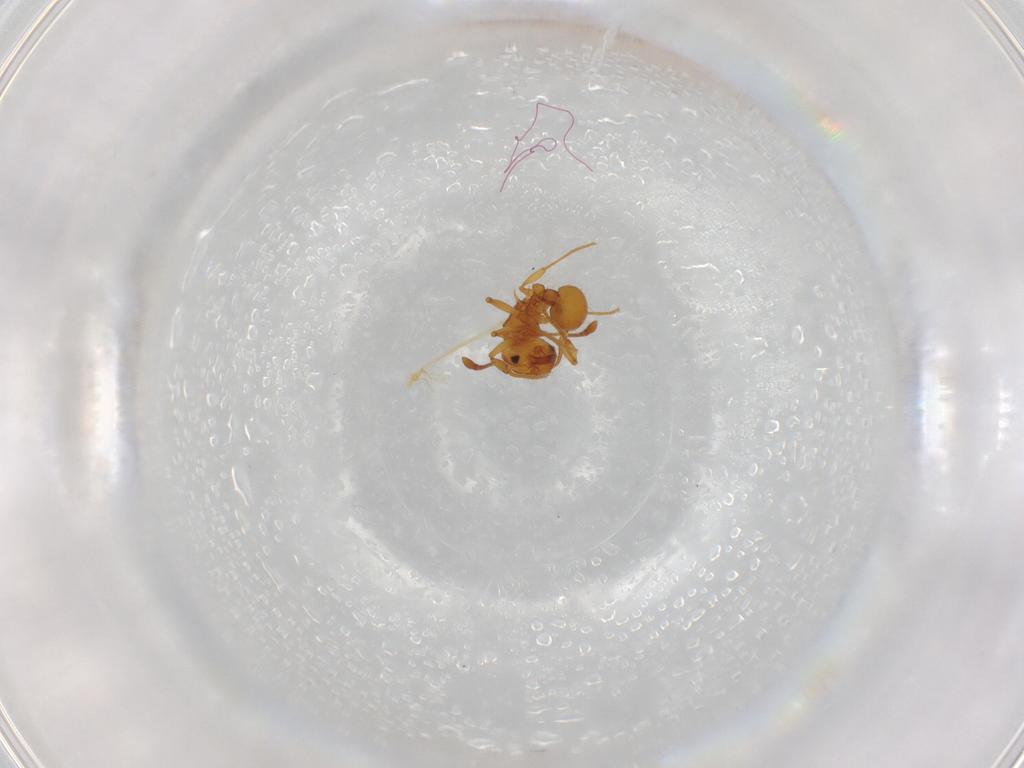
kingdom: Animalia
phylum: Arthropoda
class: Insecta
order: Hymenoptera
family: Formicidae
